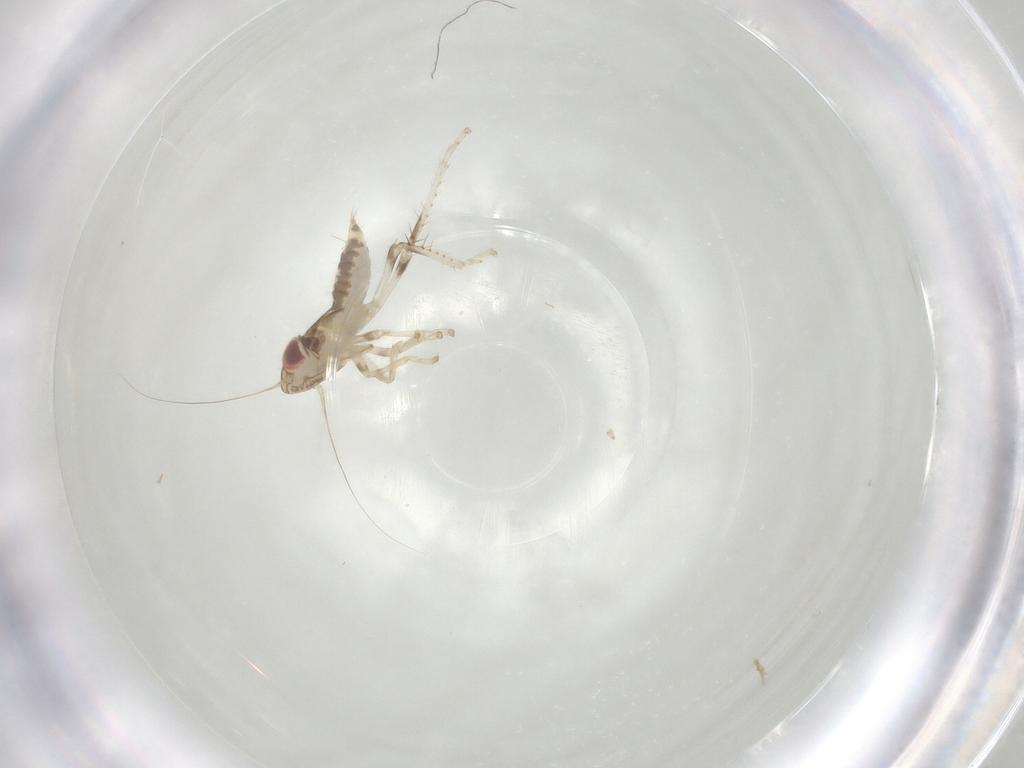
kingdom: Animalia
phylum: Arthropoda
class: Insecta
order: Hemiptera
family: Cicadellidae
